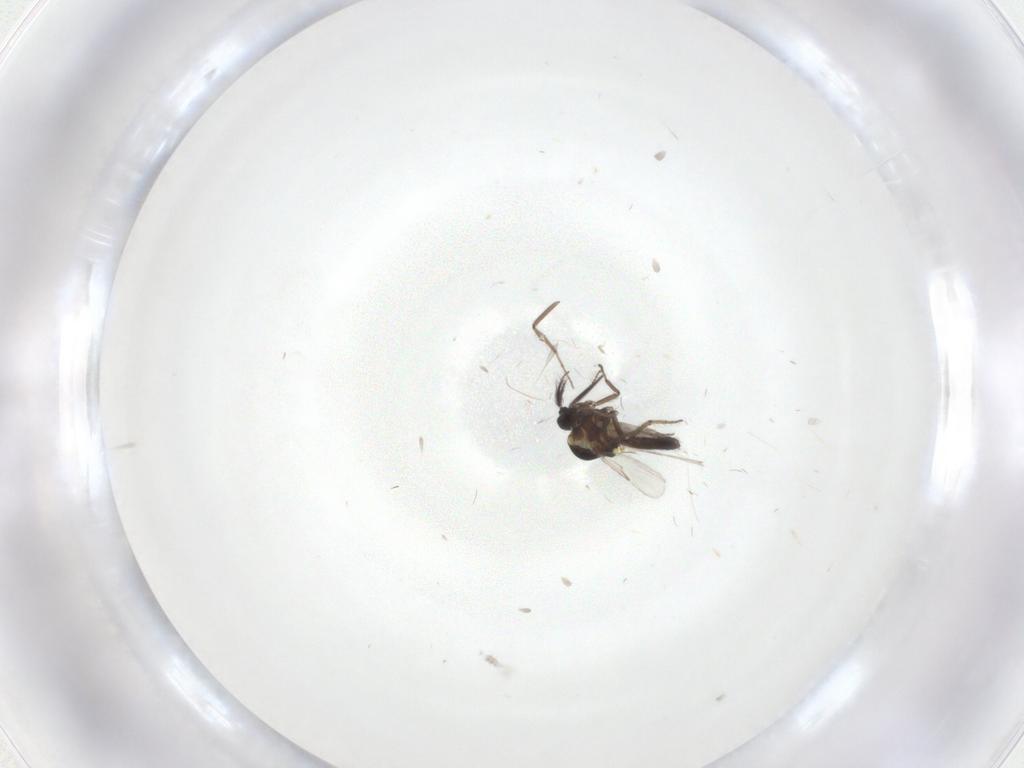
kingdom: Animalia
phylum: Arthropoda
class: Insecta
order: Diptera
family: Ceratopogonidae
